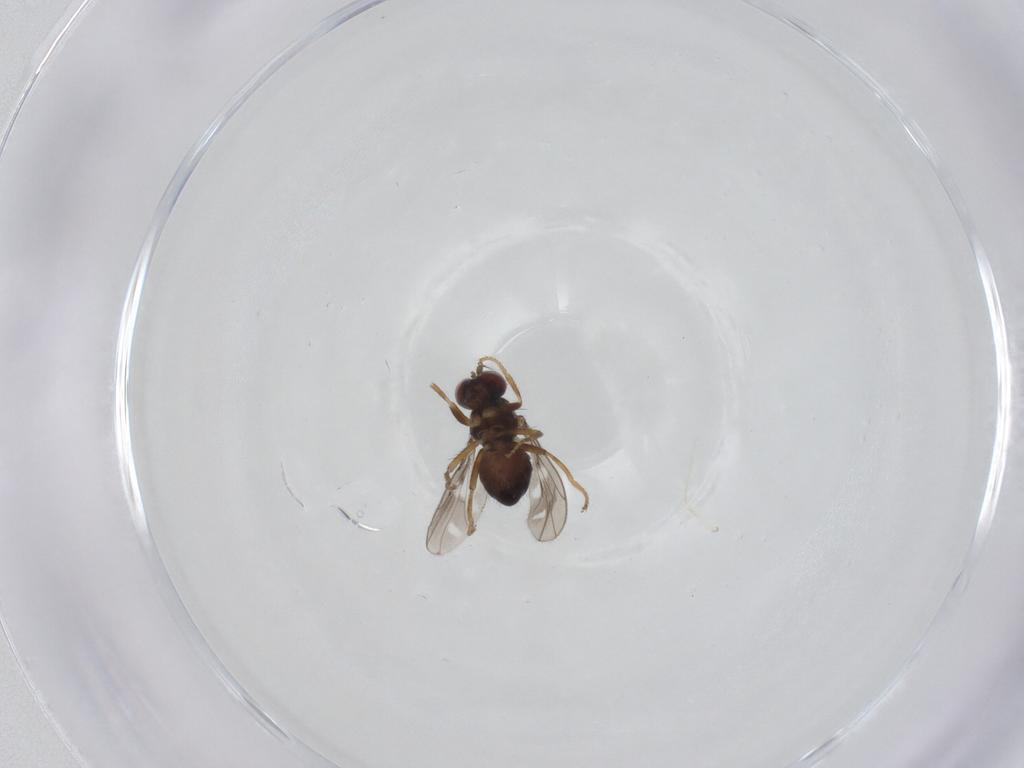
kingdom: Animalia
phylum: Arthropoda
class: Insecta
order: Diptera
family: Ephydridae
